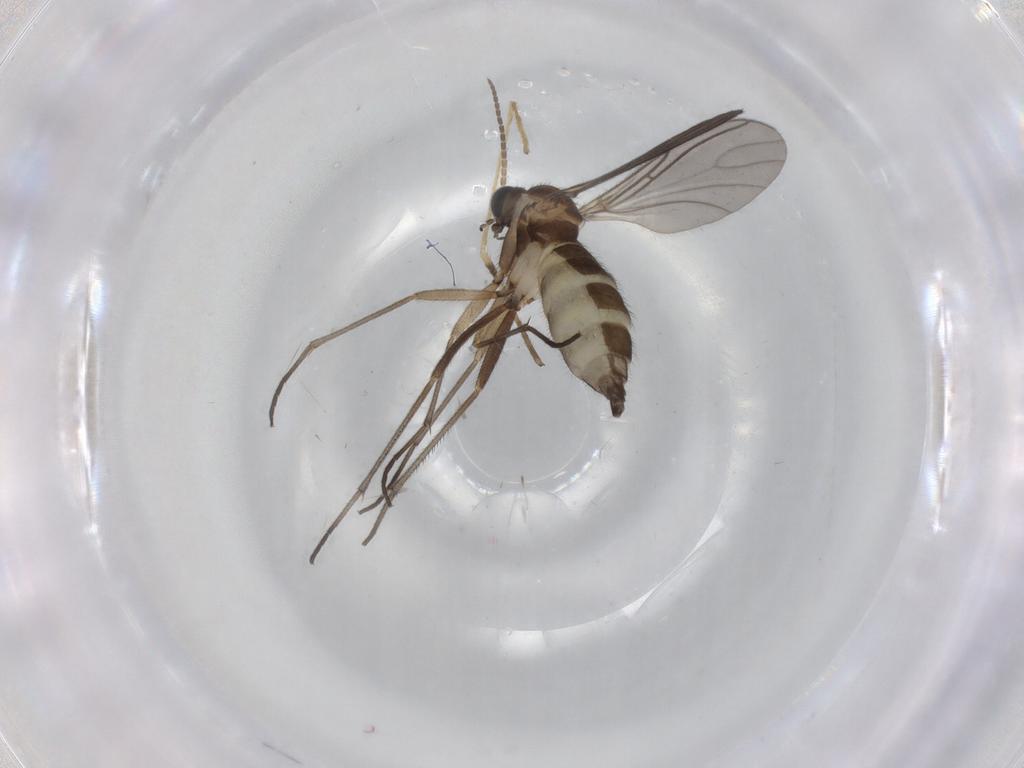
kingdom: Animalia
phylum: Arthropoda
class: Insecta
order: Diptera
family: Sciaridae
